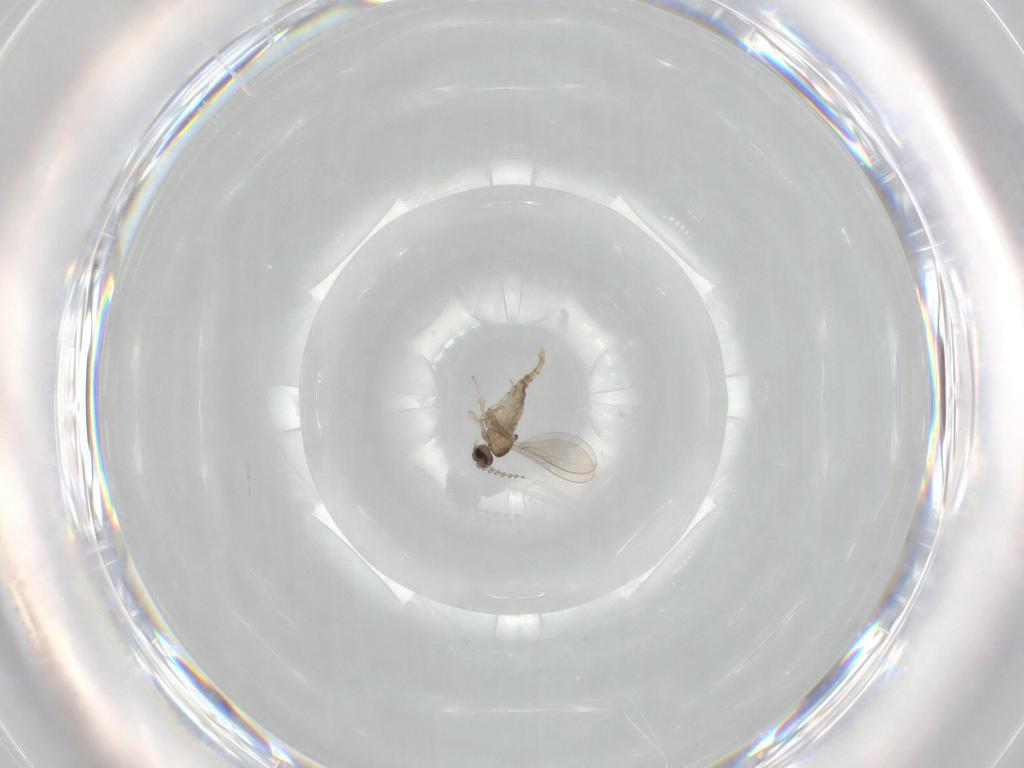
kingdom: Animalia
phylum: Arthropoda
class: Insecta
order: Diptera
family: Cecidomyiidae
